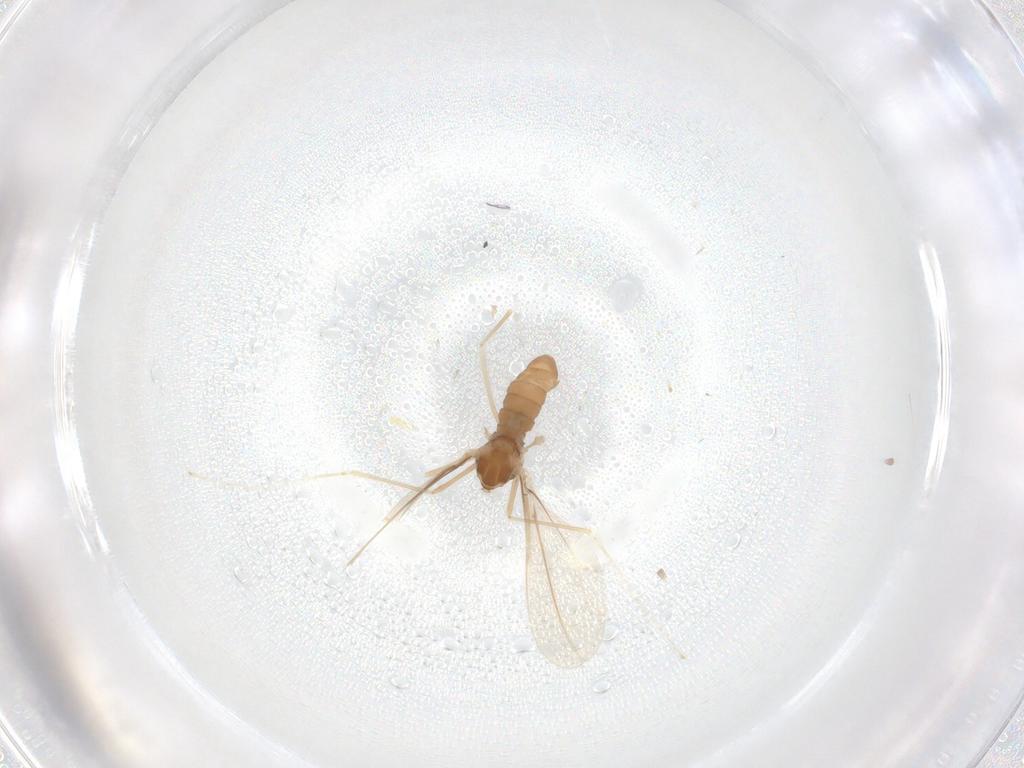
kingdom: Animalia
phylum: Arthropoda
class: Insecta
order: Diptera
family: Cecidomyiidae
